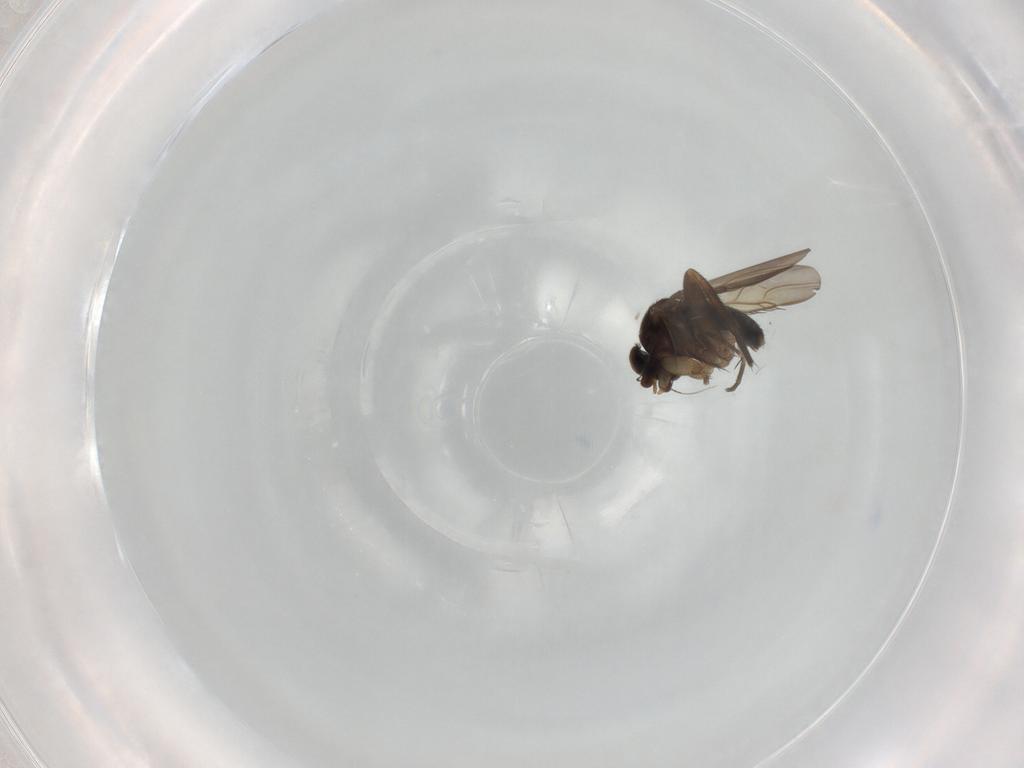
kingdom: Animalia
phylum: Arthropoda
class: Insecta
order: Diptera
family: Phoridae
